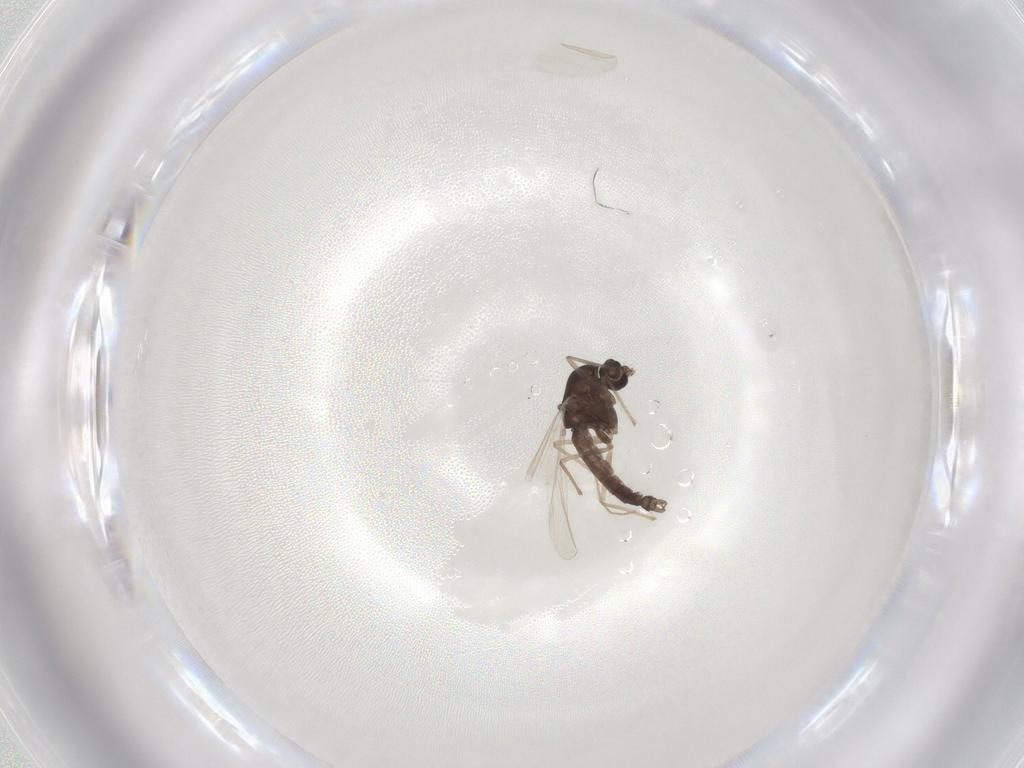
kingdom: Animalia
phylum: Arthropoda
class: Insecta
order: Diptera
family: Chironomidae
